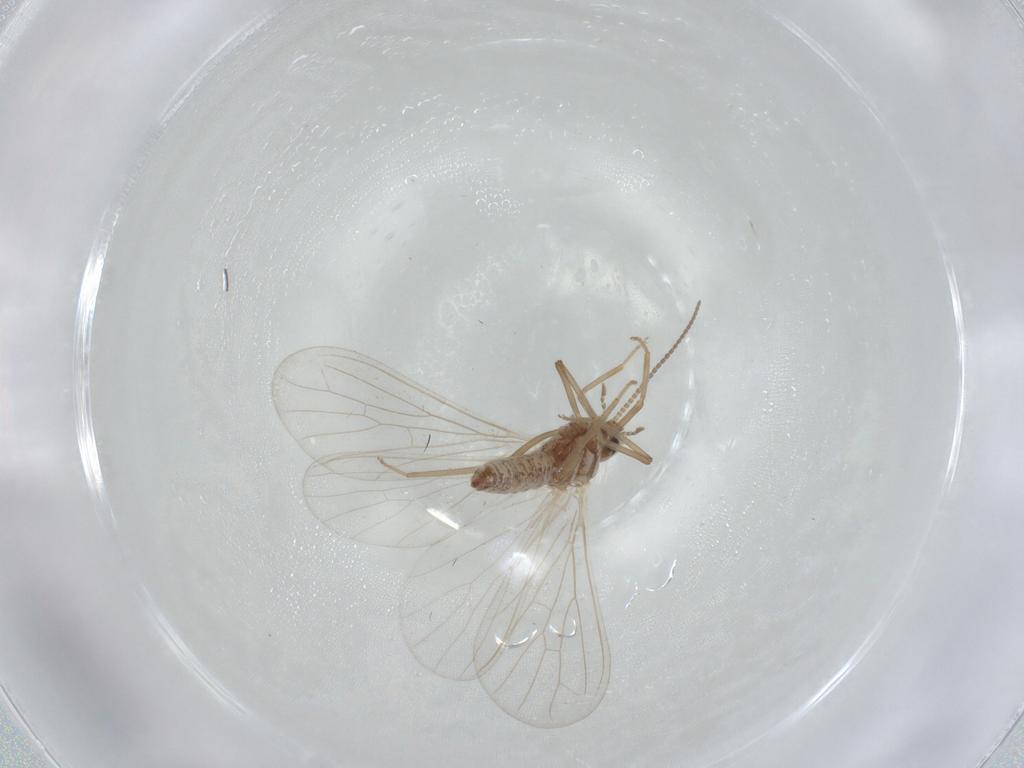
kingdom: Animalia
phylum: Arthropoda
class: Insecta
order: Neuroptera
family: Coniopterygidae
